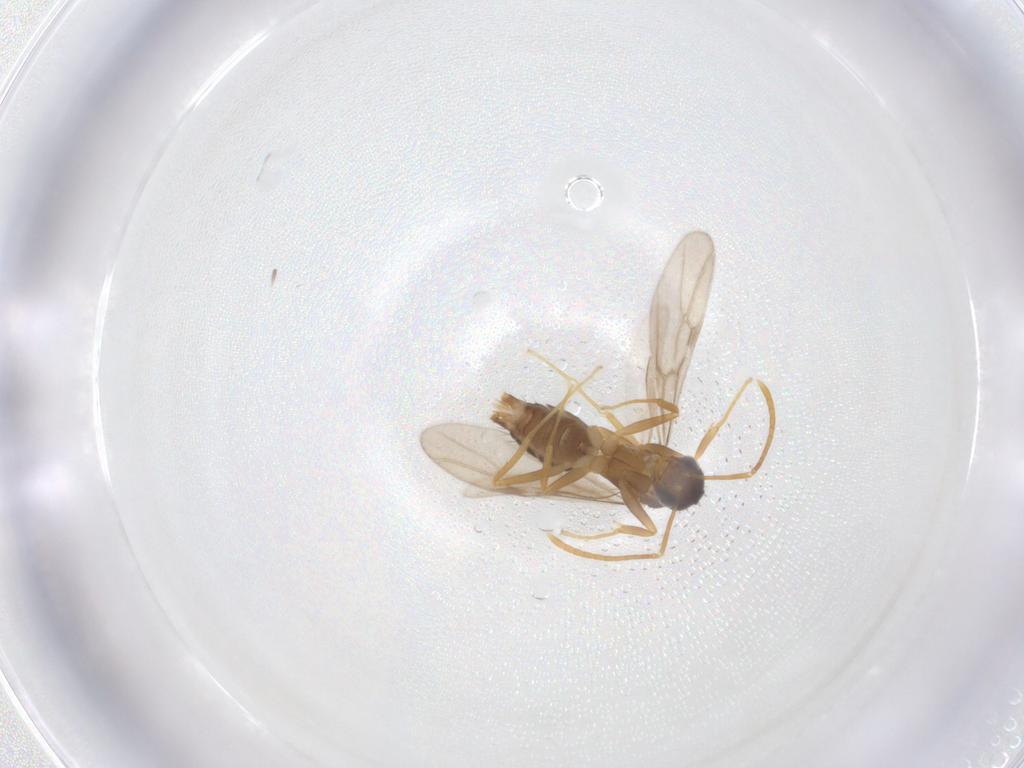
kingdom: Animalia
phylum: Arthropoda
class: Insecta
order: Hymenoptera
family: Formicidae
